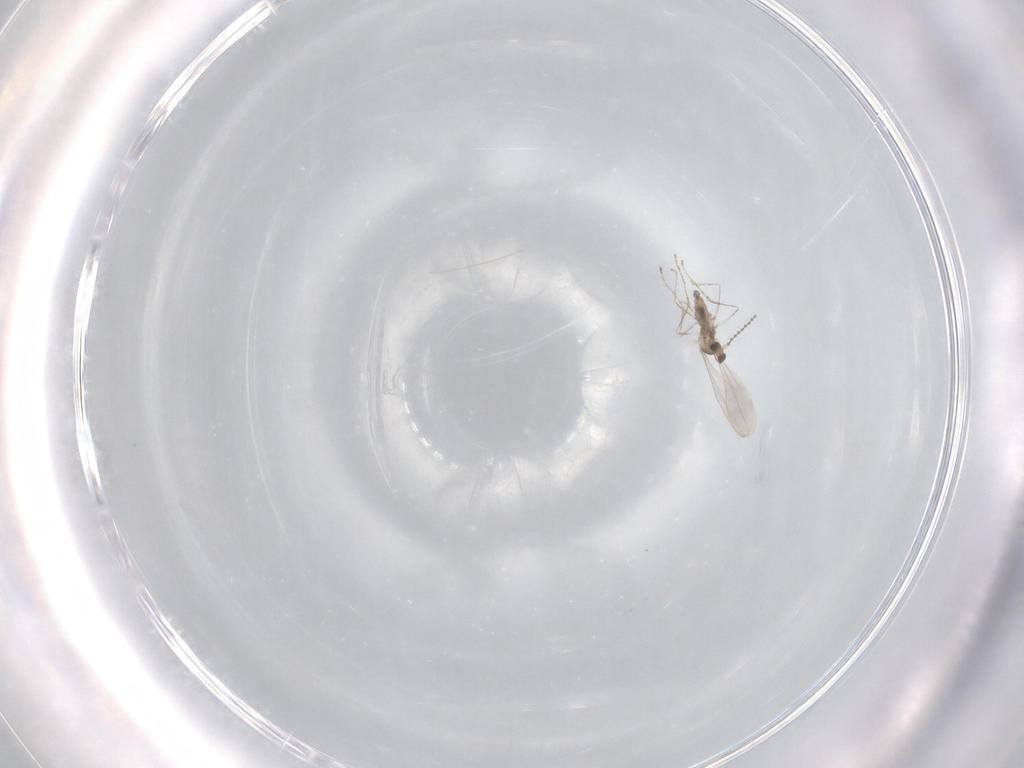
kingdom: Animalia
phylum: Arthropoda
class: Insecta
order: Diptera
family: Cecidomyiidae
